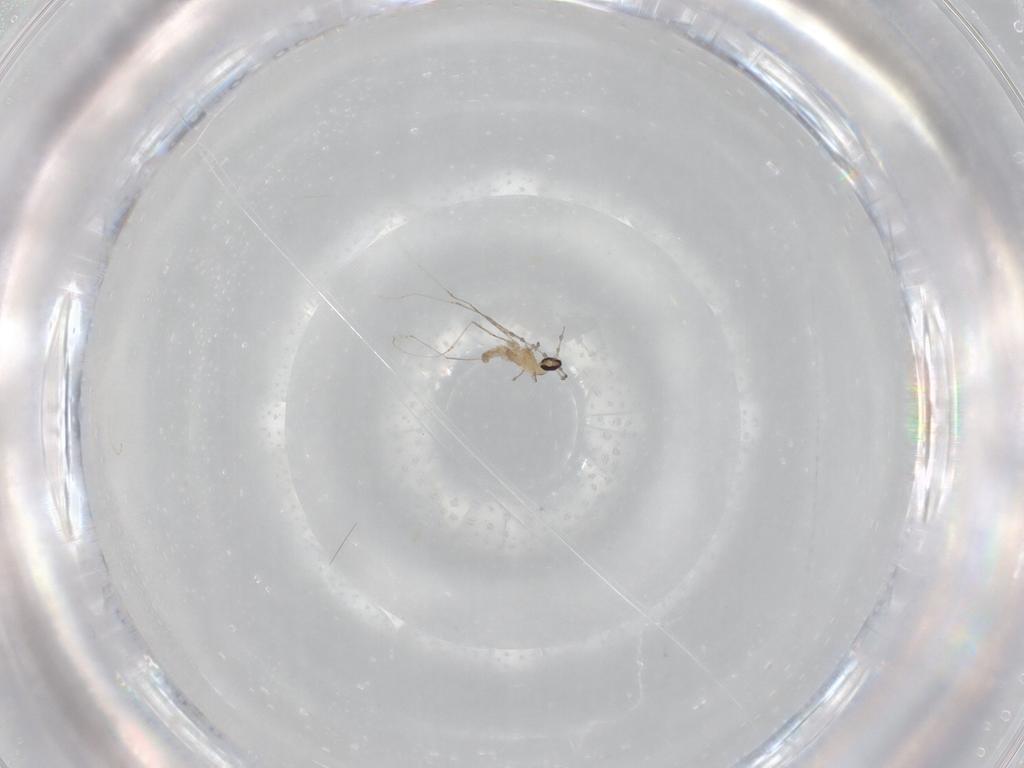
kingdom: Animalia
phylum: Arthropoda
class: Insecta
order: Diptera
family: Cecidomyiidae
